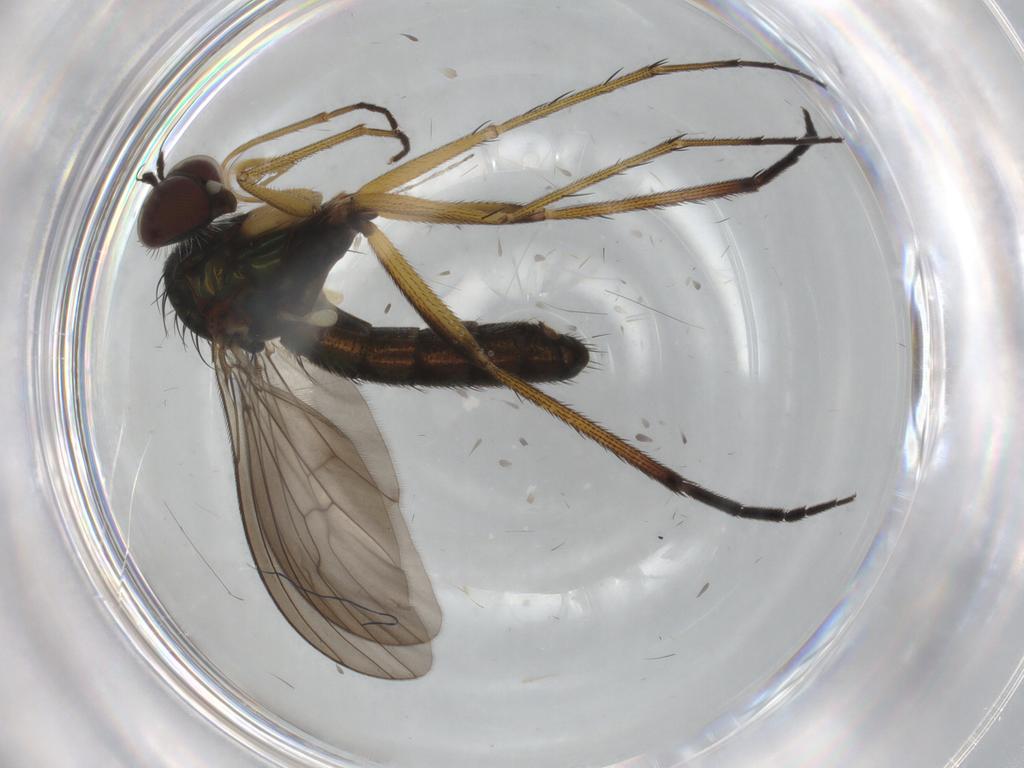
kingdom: Animalia
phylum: Arthropoda
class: Insecta
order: Diptera
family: Dolichopodidae
